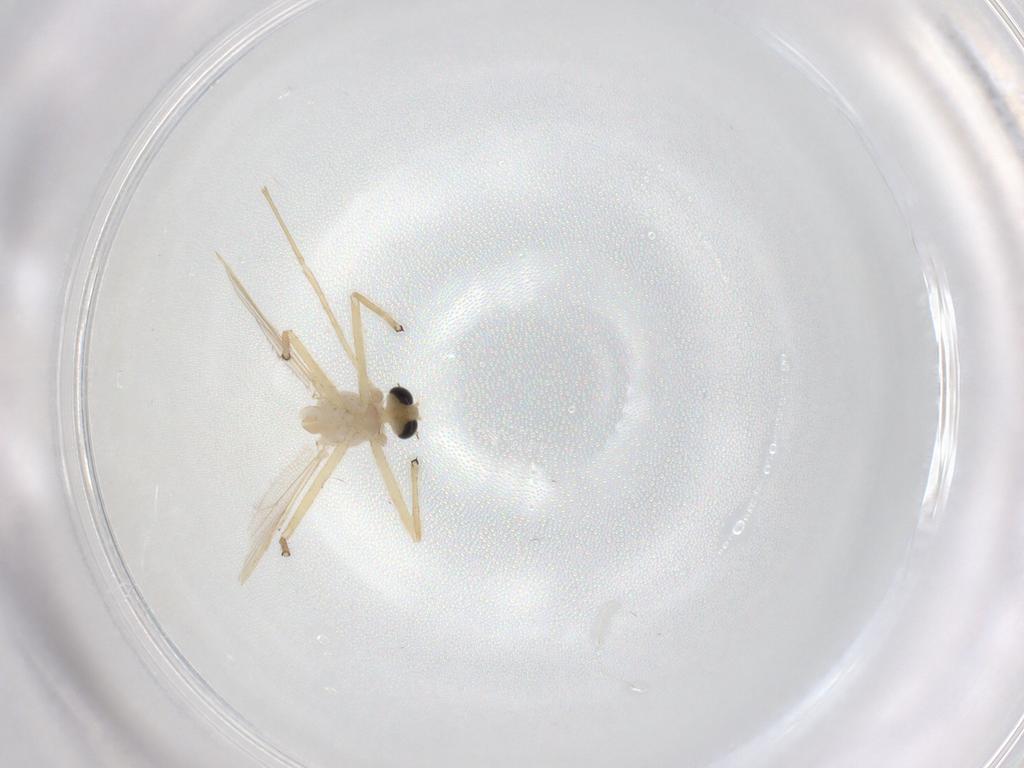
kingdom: Animalia
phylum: Arthropoda
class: Insecta
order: Diptera
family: Chironomidae
